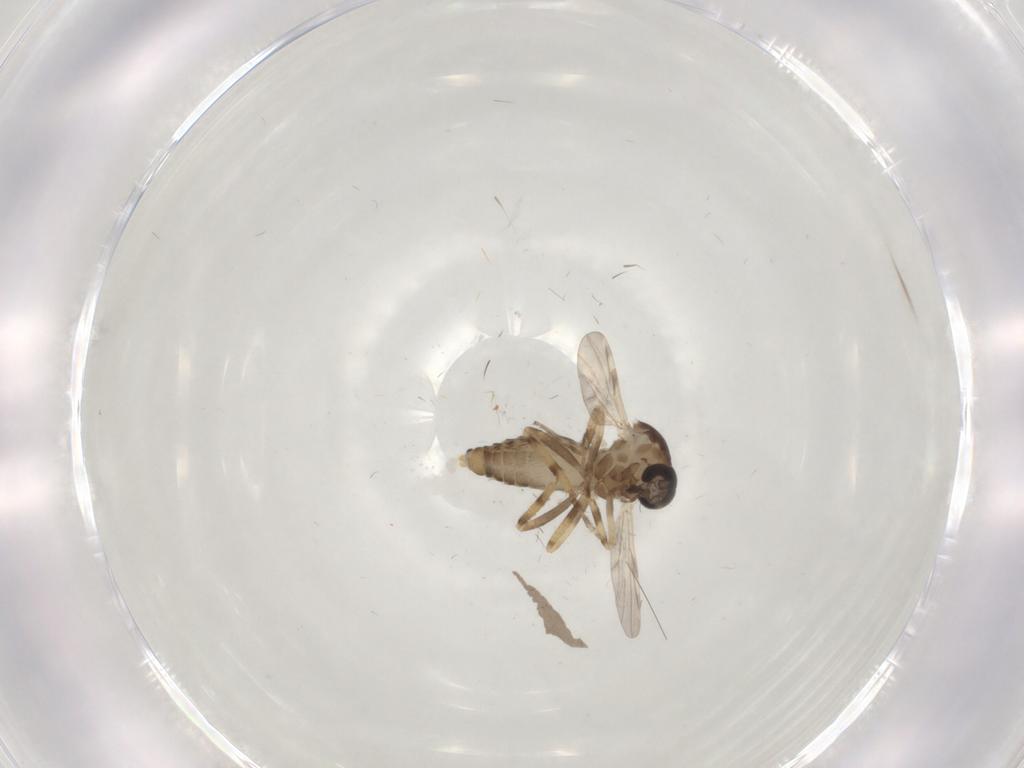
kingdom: Animalia
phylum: Arthropoda
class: Insecta
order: Diptera
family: Ceratopogonidae
